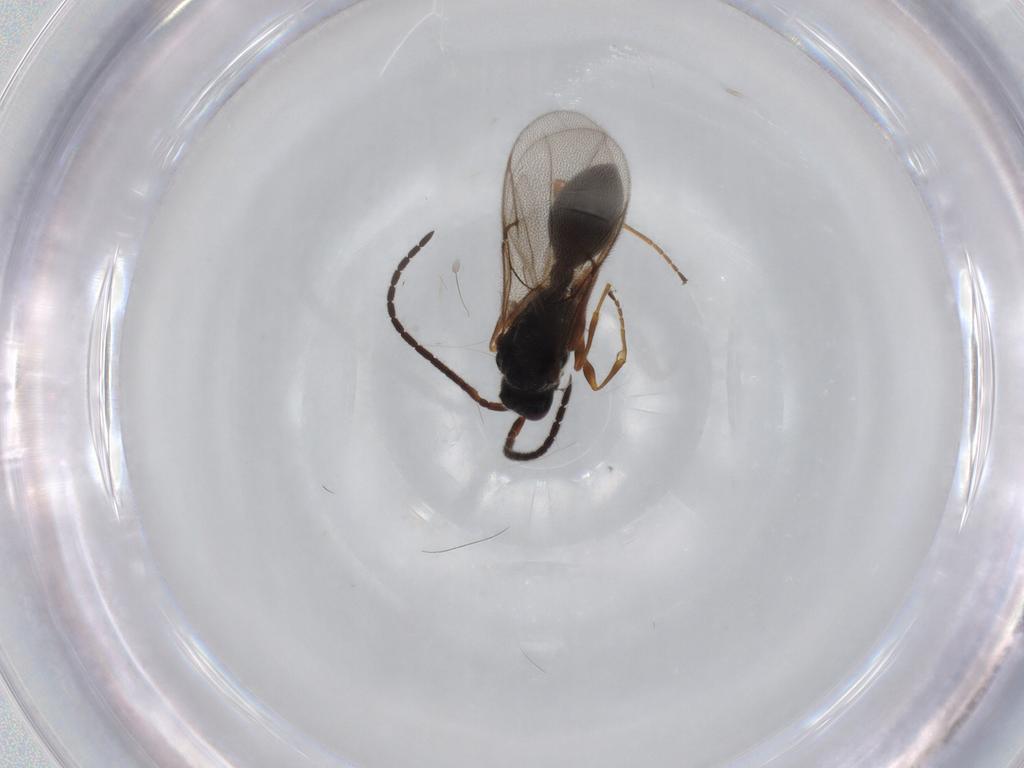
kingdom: Animalia
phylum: Arthropoda
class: Insecta
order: Hymenoptera
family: Diapriidae
